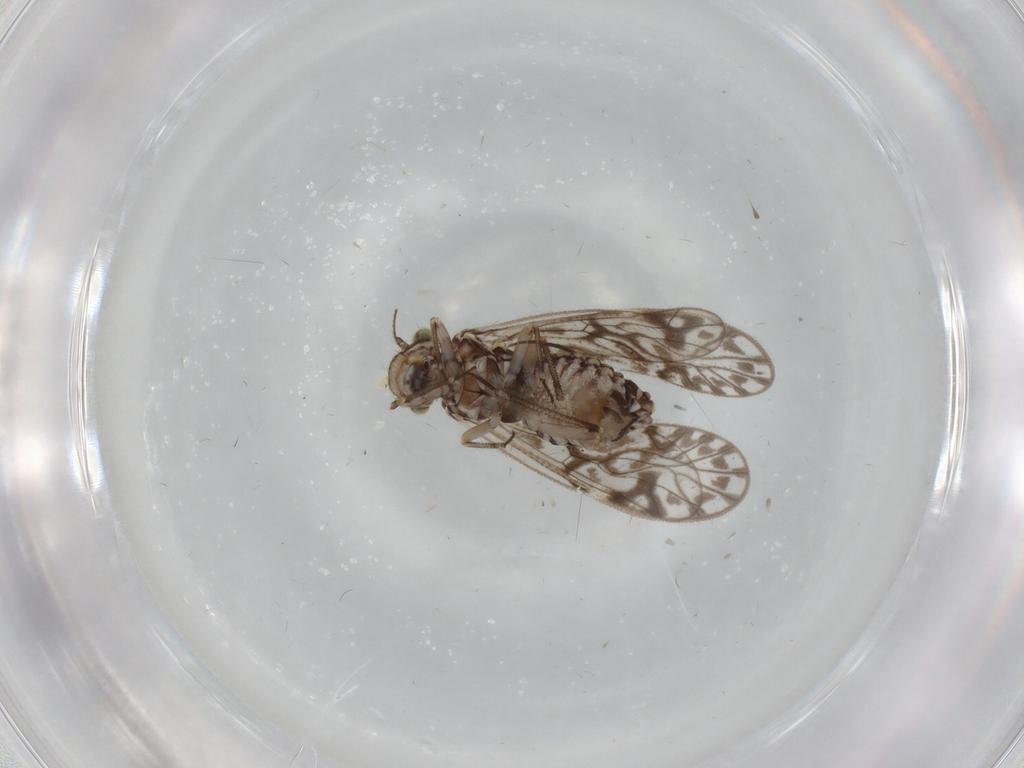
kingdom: Animalia
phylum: Arthropoda
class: Insecta
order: Psocodea
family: Philotarsidae
